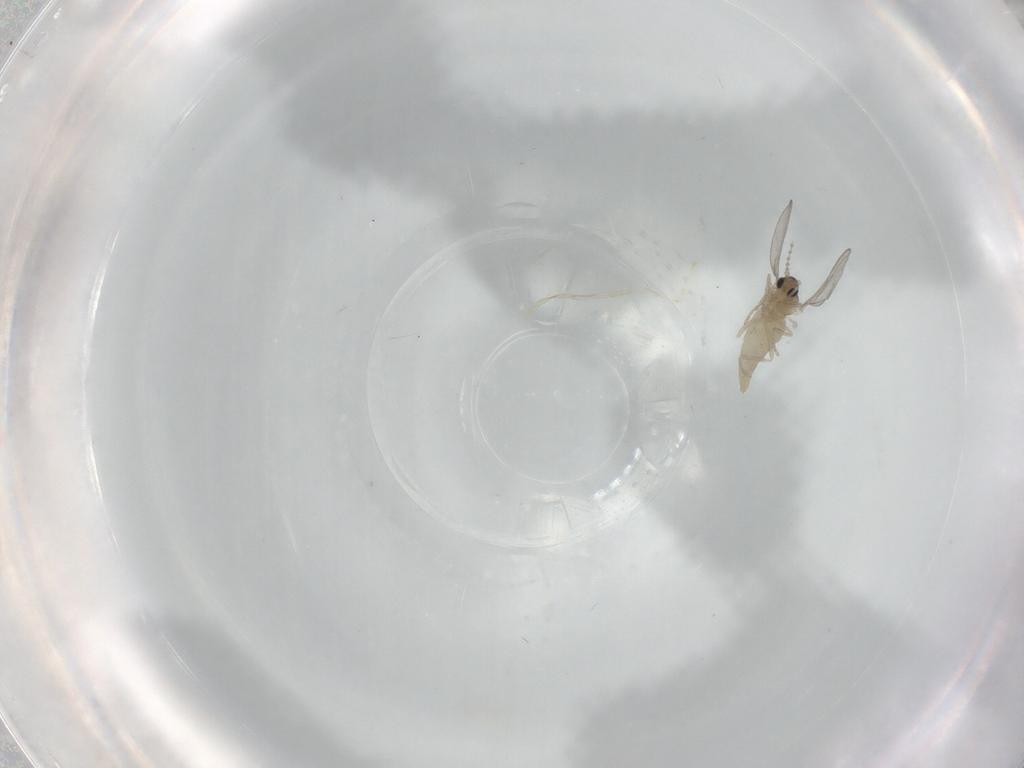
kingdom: Animalia
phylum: Arthropoda
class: Insecta
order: Diptera
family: Cecidomyiidae
